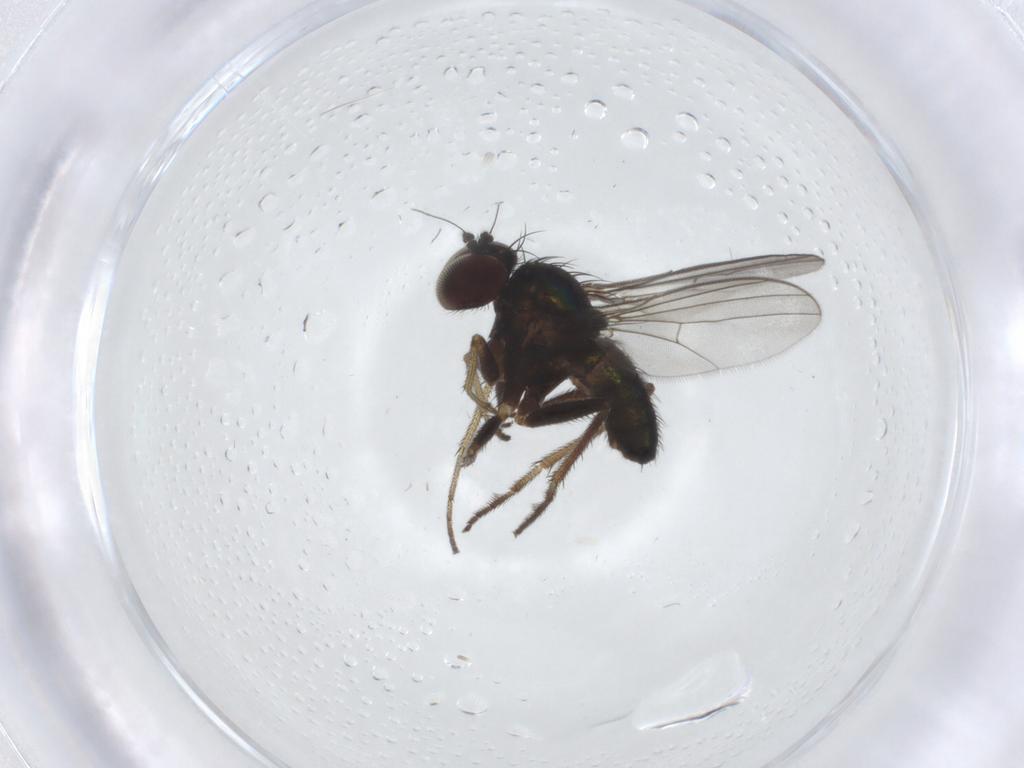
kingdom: Animalia
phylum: Arthropoda
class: Insecta
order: Diptera
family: Dolichopodidae
